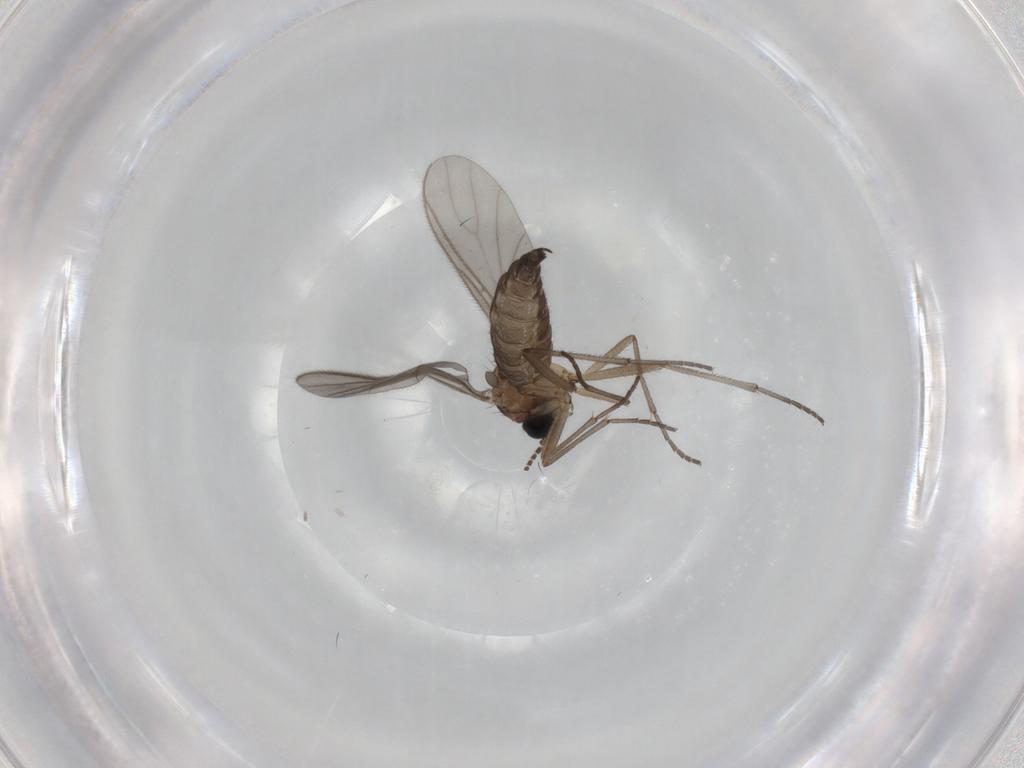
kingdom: Animalia
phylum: Arthropoda
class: Insecta
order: Diptera
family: Sciaridae
